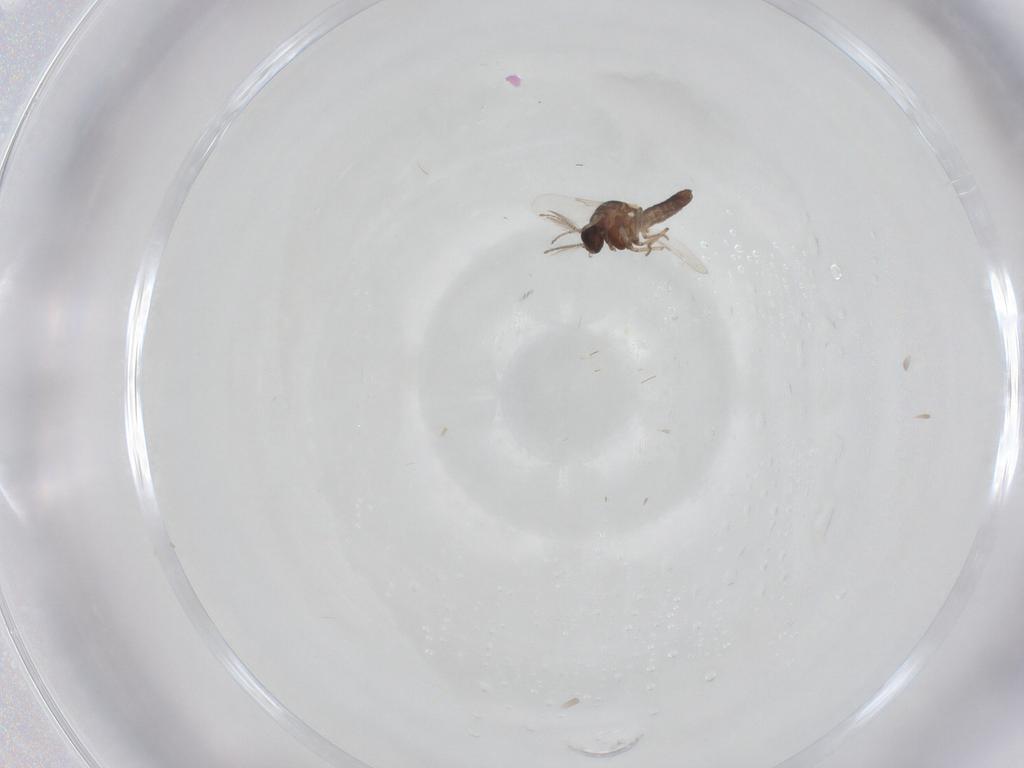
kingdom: Animalia
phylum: Arthropoda
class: Insecta
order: Diptera
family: Ceratopogonidae
